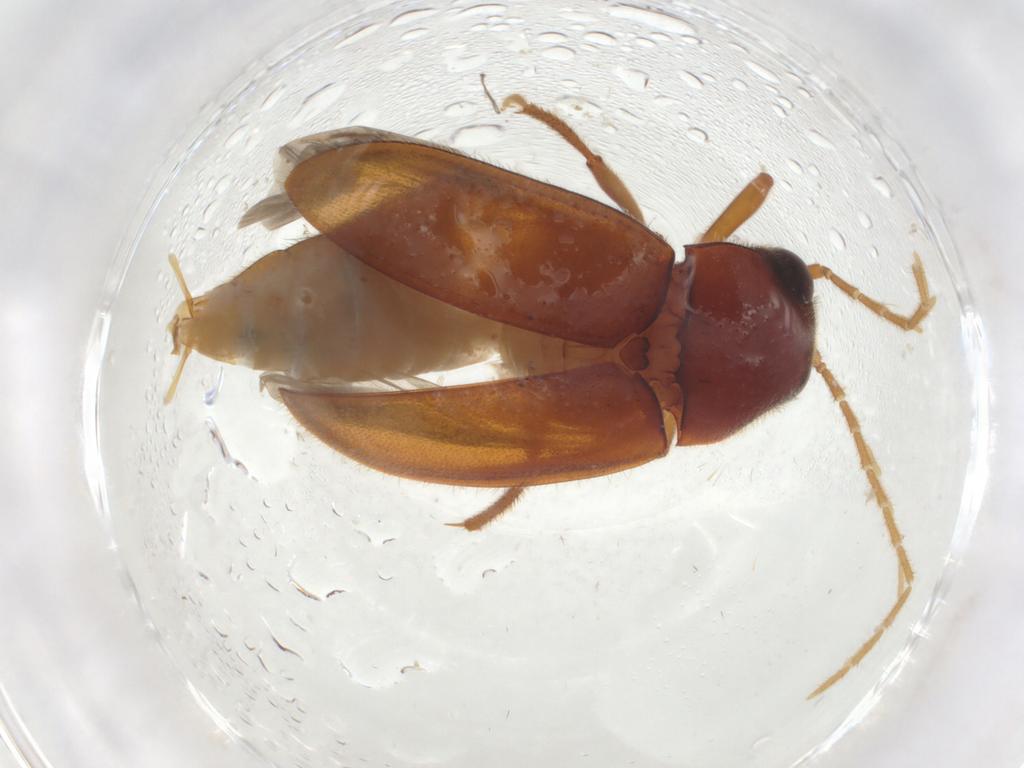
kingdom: Animalia
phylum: Arthropoda
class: Insecta
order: Coleoptera
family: Ptilodactylidae
